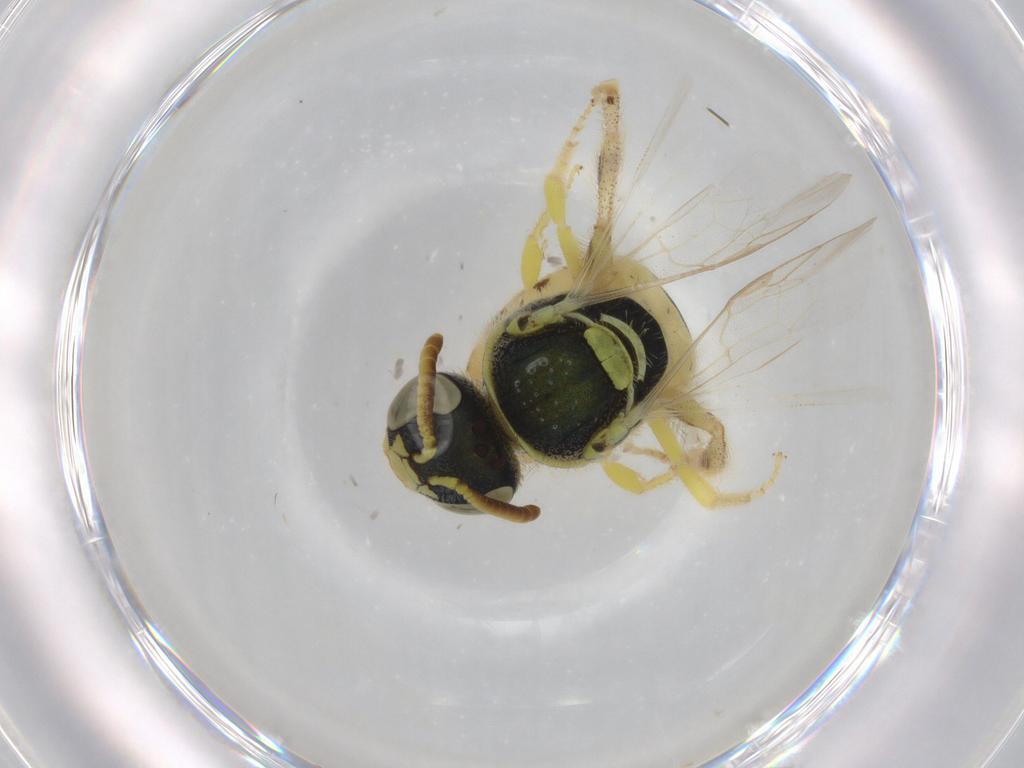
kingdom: Animalia
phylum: Arthropoda
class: Insecta
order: Hymenoptera
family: Halictidae
